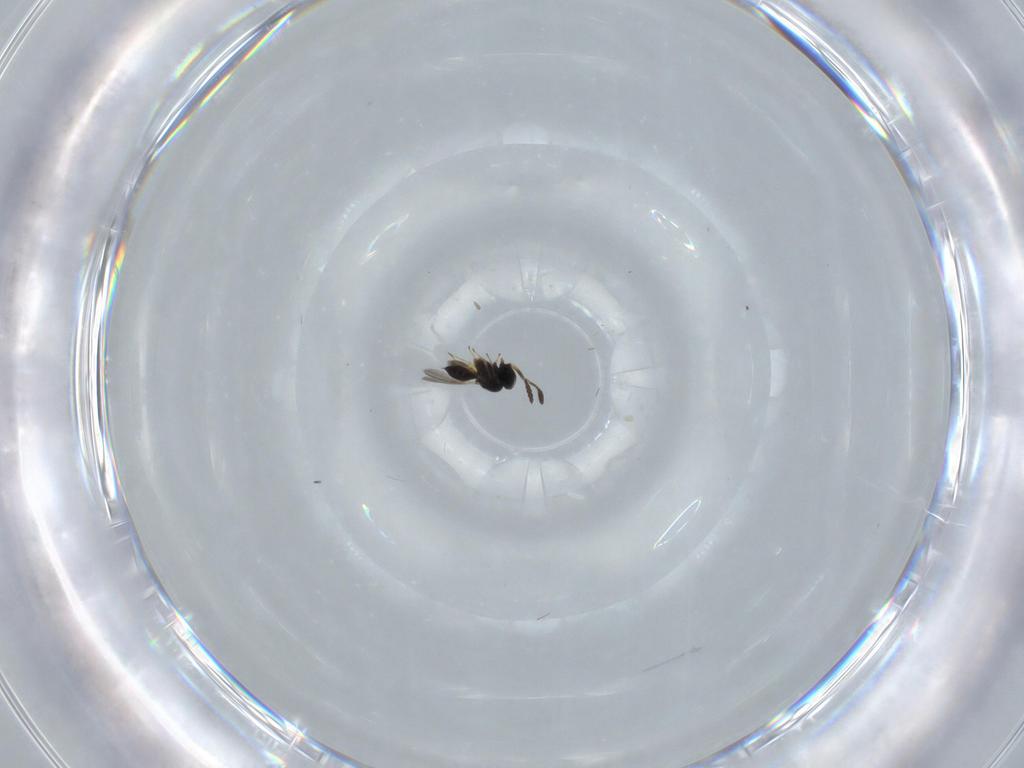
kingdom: Animalia
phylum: Arthropoda
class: Insecta
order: Hymenoptera
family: Scelionidae
